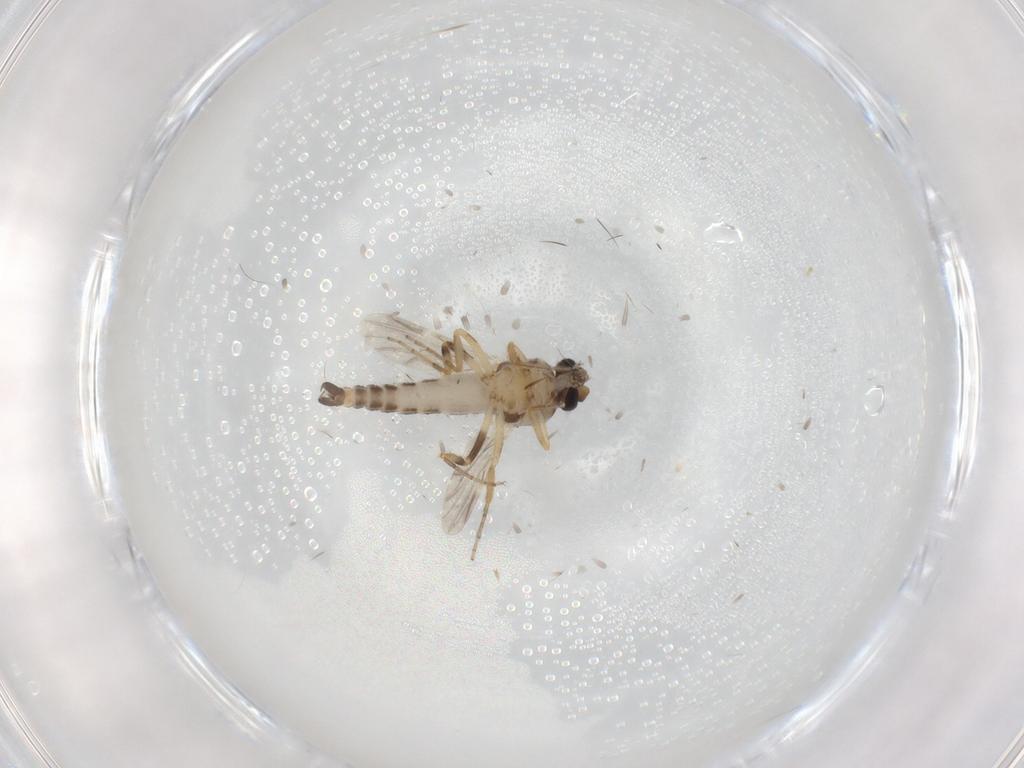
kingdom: Animalia
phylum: Arthropoda
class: Insecta
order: Diptera
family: Ceratopogonidae
